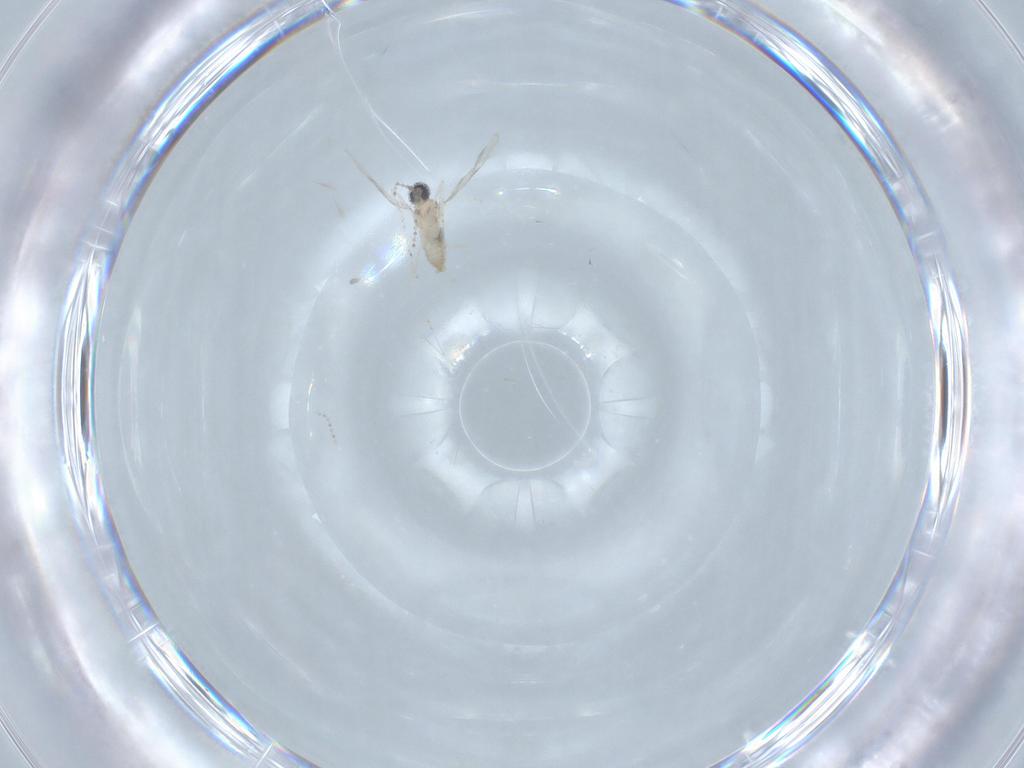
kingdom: Animalia
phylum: Arthropoda
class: Insecta
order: Diptera
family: Cecidomyiidae
